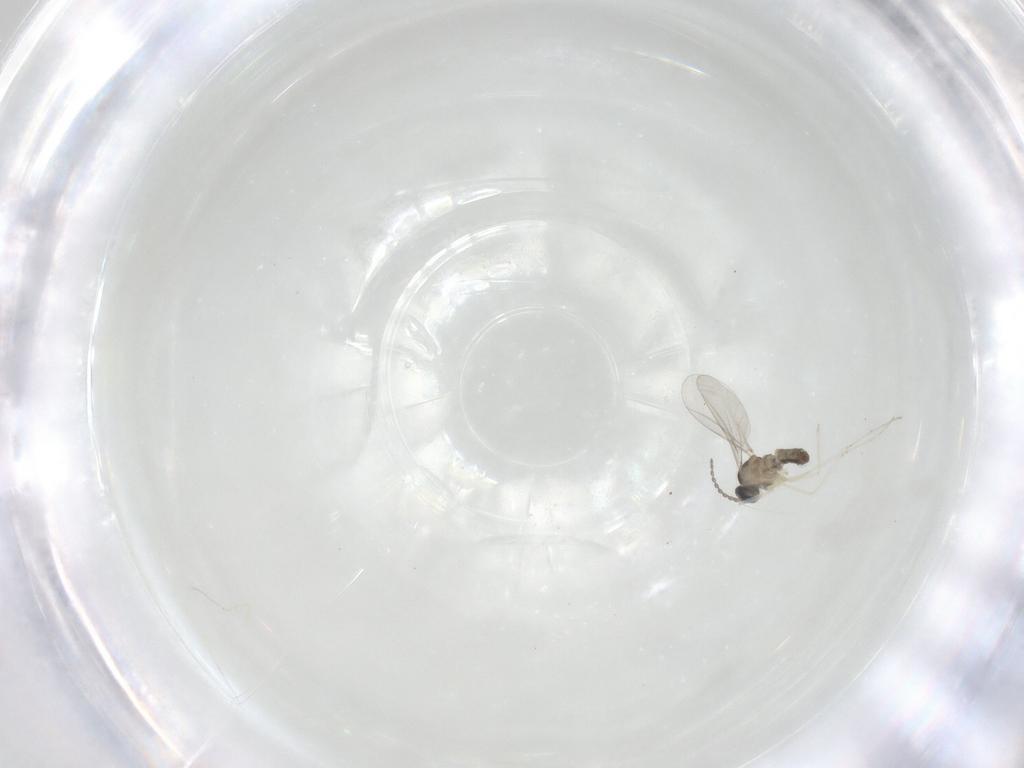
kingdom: Animalia
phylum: Arthropoda
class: Insecta
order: Diptera
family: Cecidomyiidae
